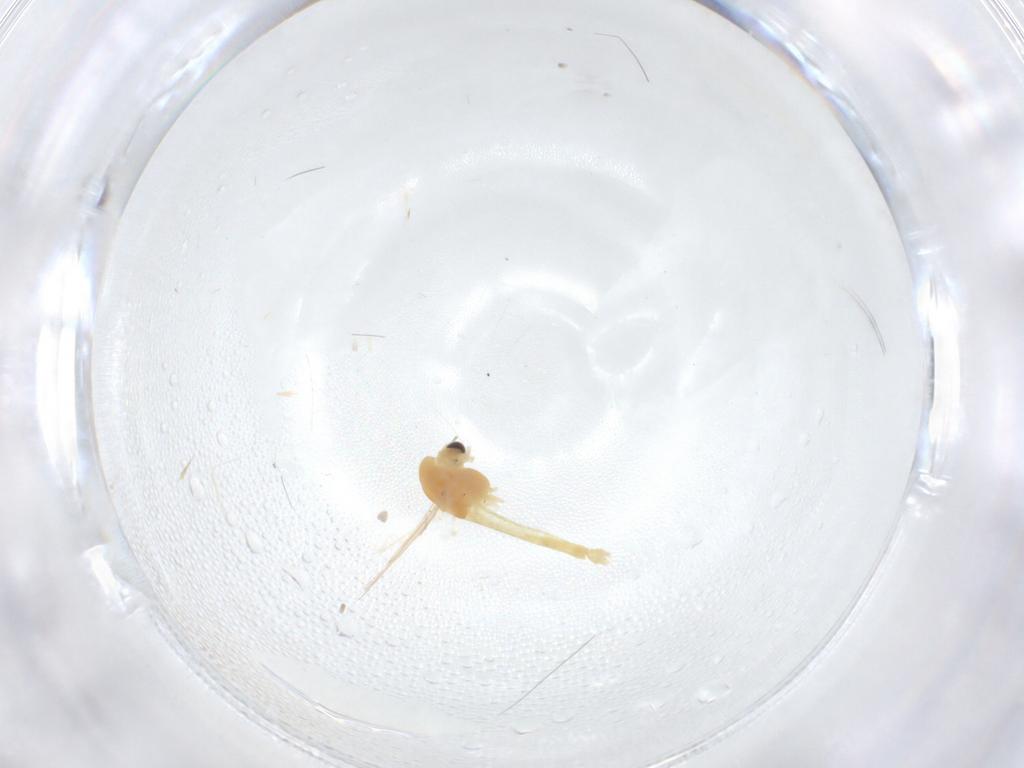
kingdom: Animalia
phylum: Arthropoda
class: Insecta
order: Diptera
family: Chironomidae
